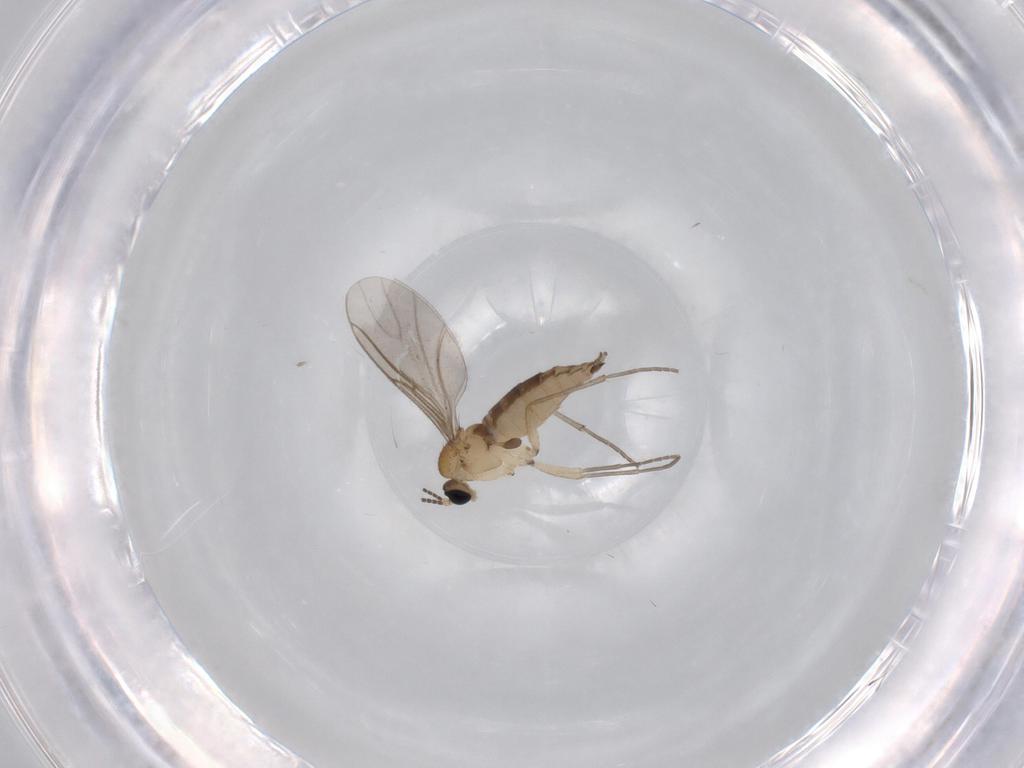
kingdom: Animalia
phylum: Arthropoda
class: Insecta
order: Diptera
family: Sciaridae
